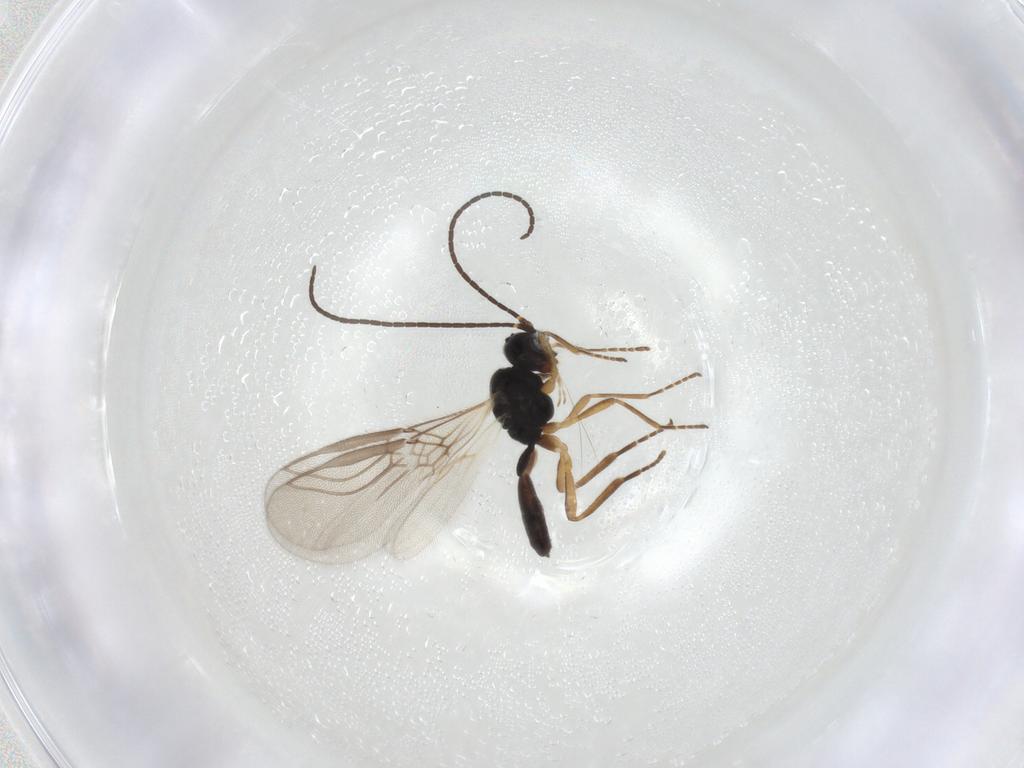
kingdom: Animalia
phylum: Arthropoda
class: Insecta
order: Hymenoptera
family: Braconidae
